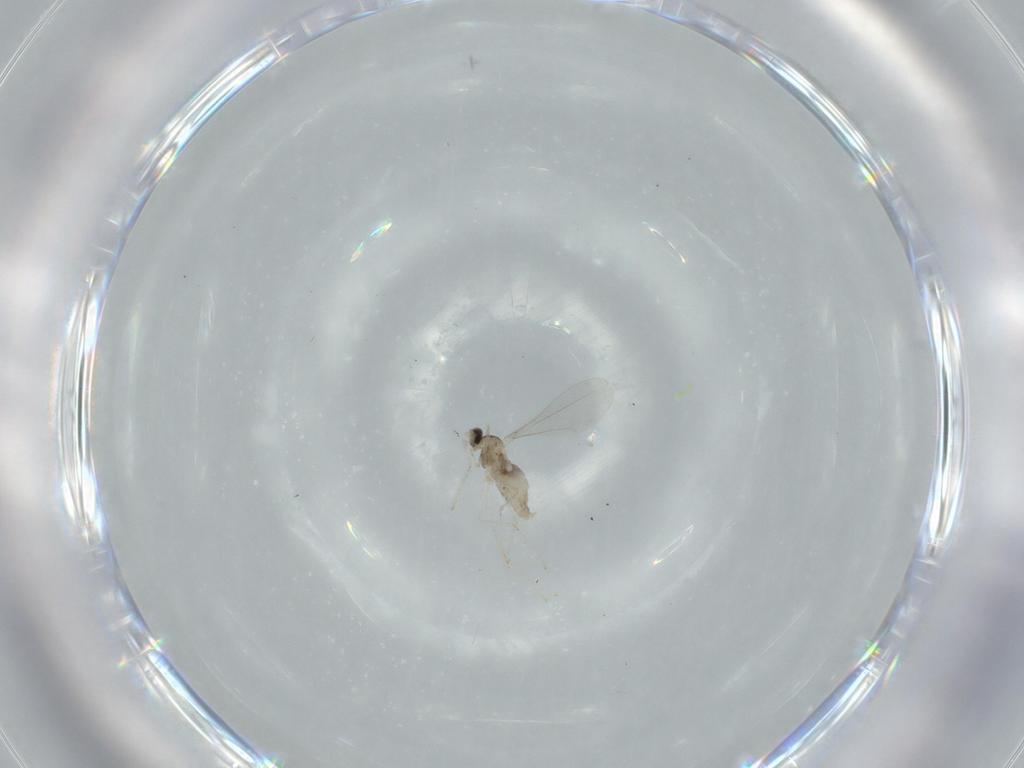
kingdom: Animalia
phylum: Arthropoda
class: Insecta
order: Diptera
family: Cecidomyiidae
